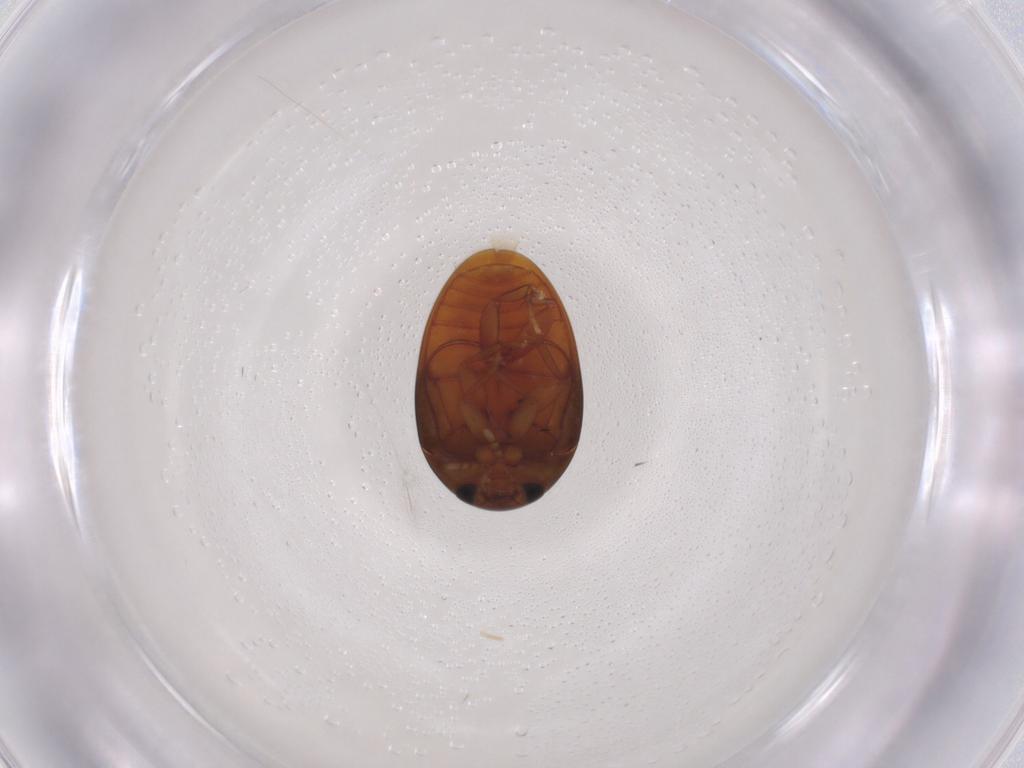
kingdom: Animalia
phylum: Arthropoda
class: Insecta
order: Coleoptera
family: Phalacridae
